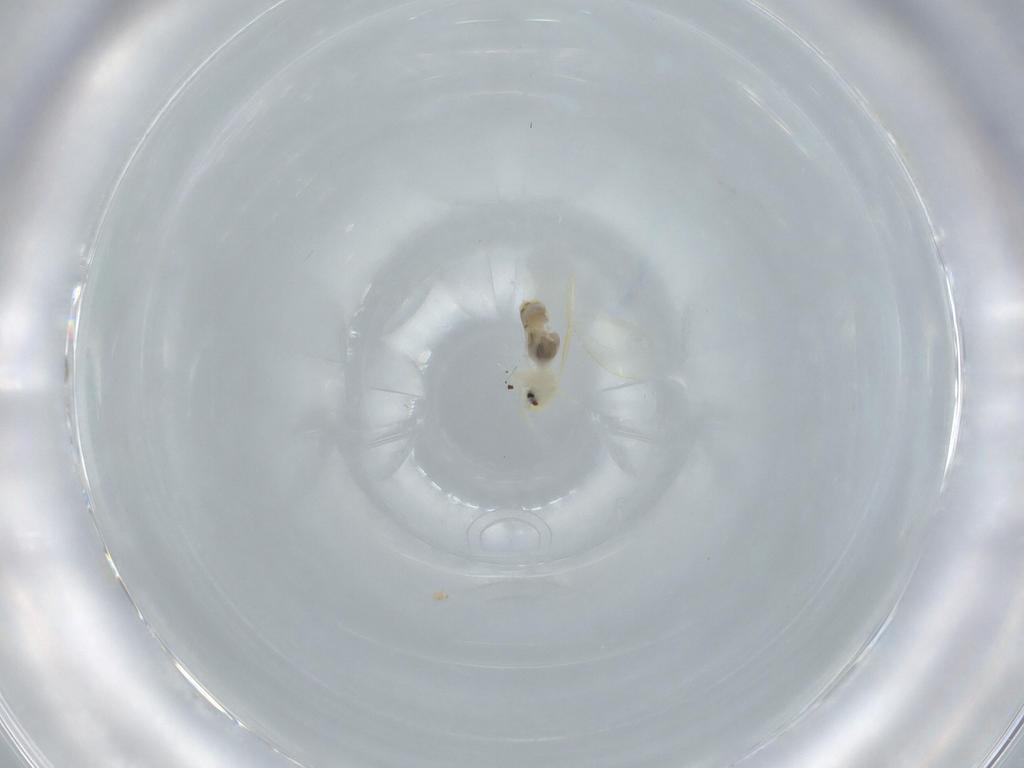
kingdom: Animalia
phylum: Arthropoda
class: Insecta
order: Hemiptera
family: Aleyrodidae
